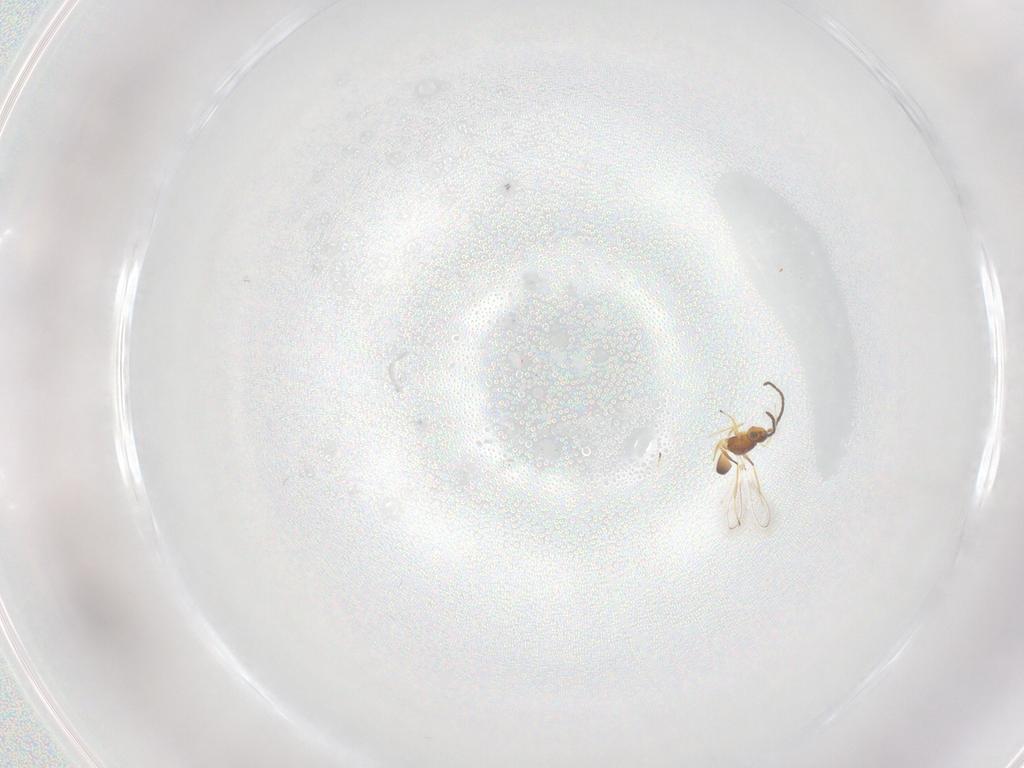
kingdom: Animalia
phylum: Arthropoda
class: Insecta
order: Hymenoptera
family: Mymaridae
